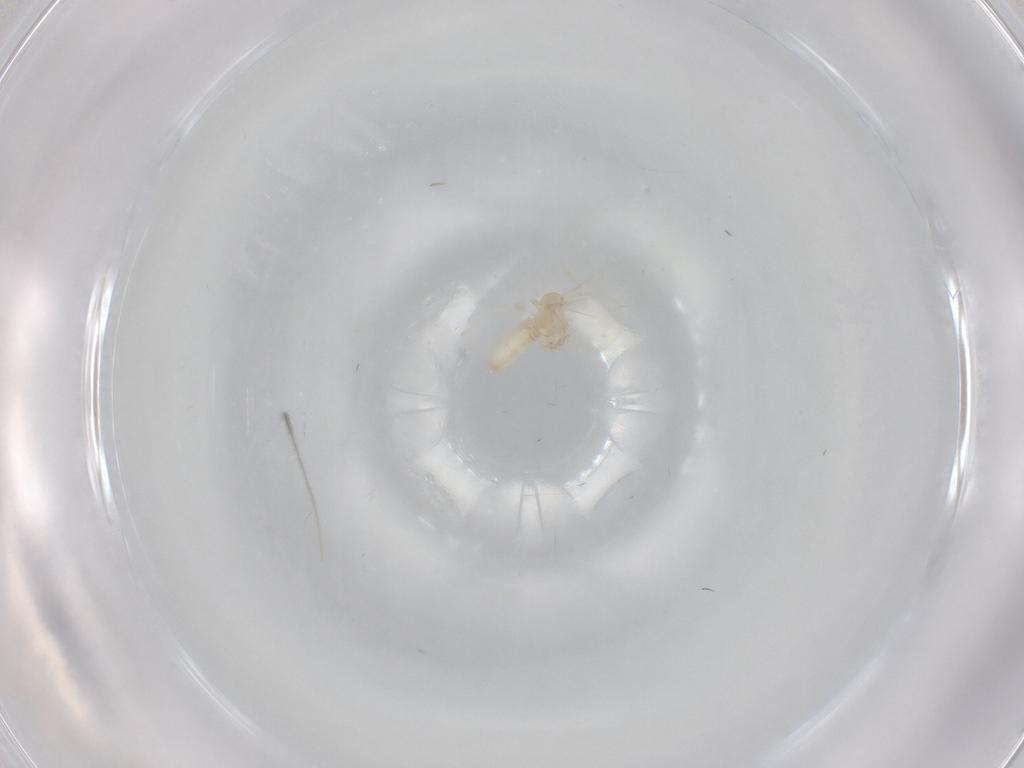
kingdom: Animalia
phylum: Arthropoda
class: Insecta
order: Diptera
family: Cecidomyiidae
